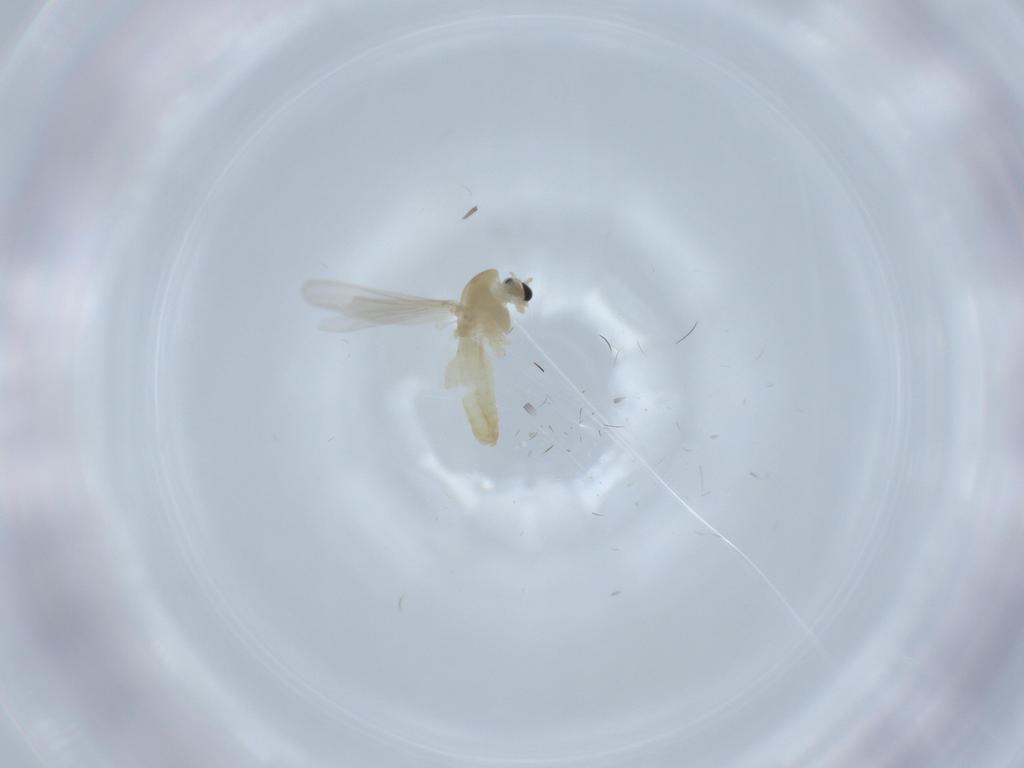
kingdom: Animalia
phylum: Arthropoda
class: Insecta
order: Diptera
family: Chironomidae
